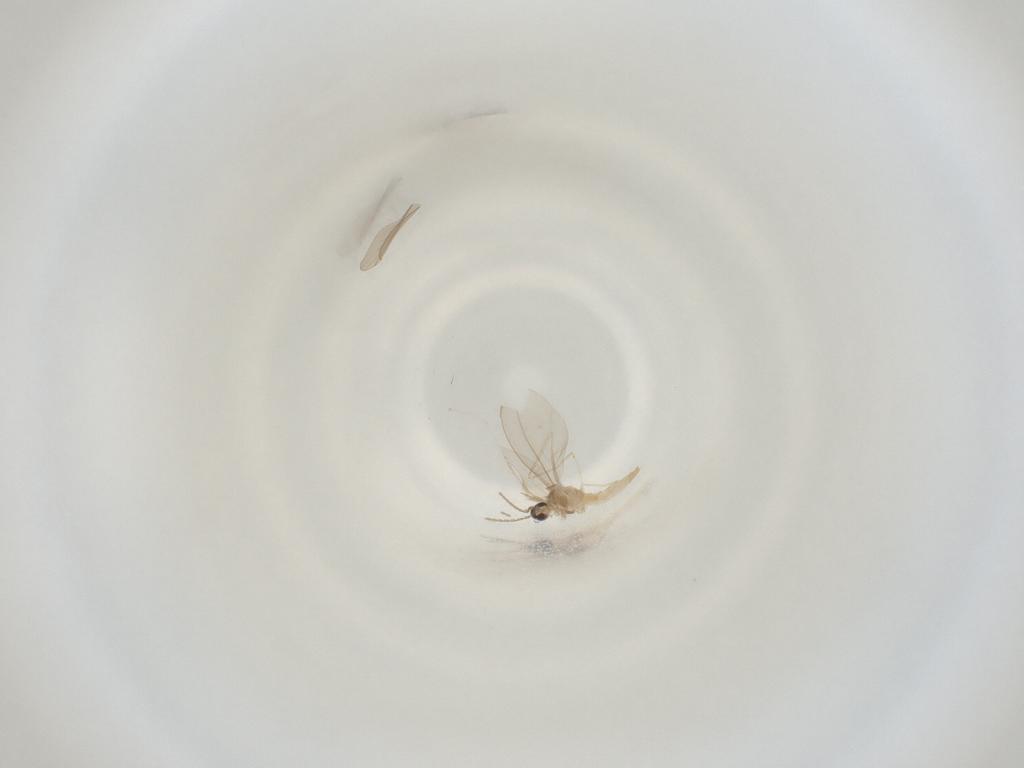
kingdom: Animalia
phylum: Arthropoda
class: Insecta
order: Diptera
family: Cecidomyiidae
